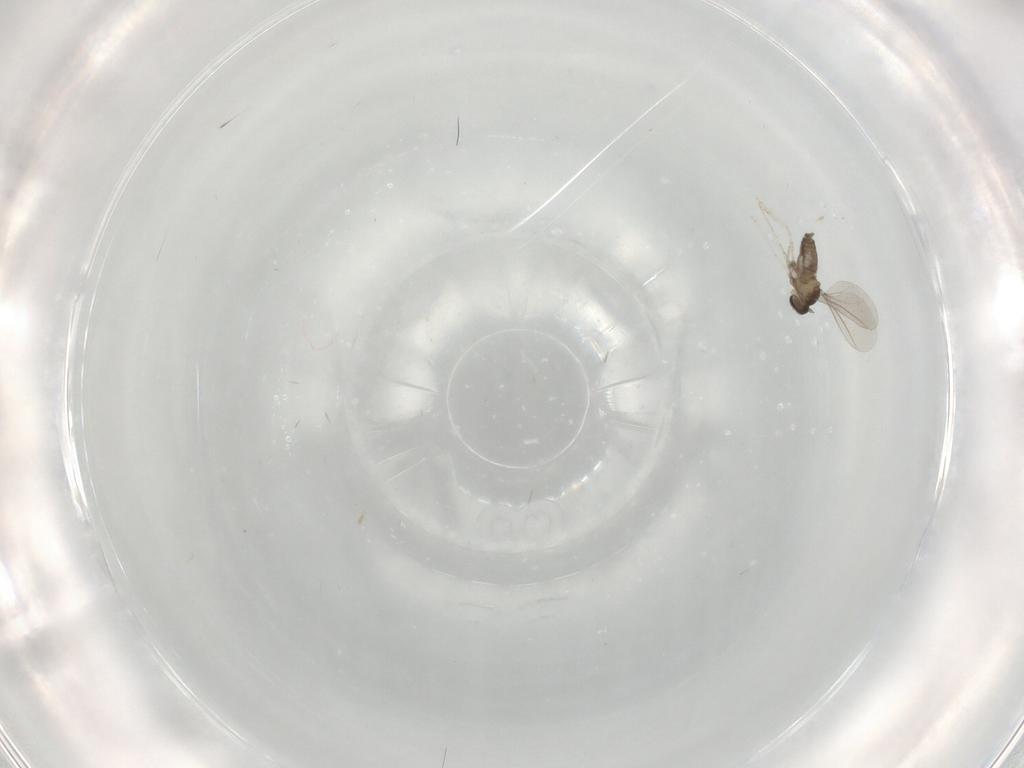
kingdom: Animalia
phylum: Arthropoda
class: Insecta
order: Diptera
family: Cecidomyiidae
